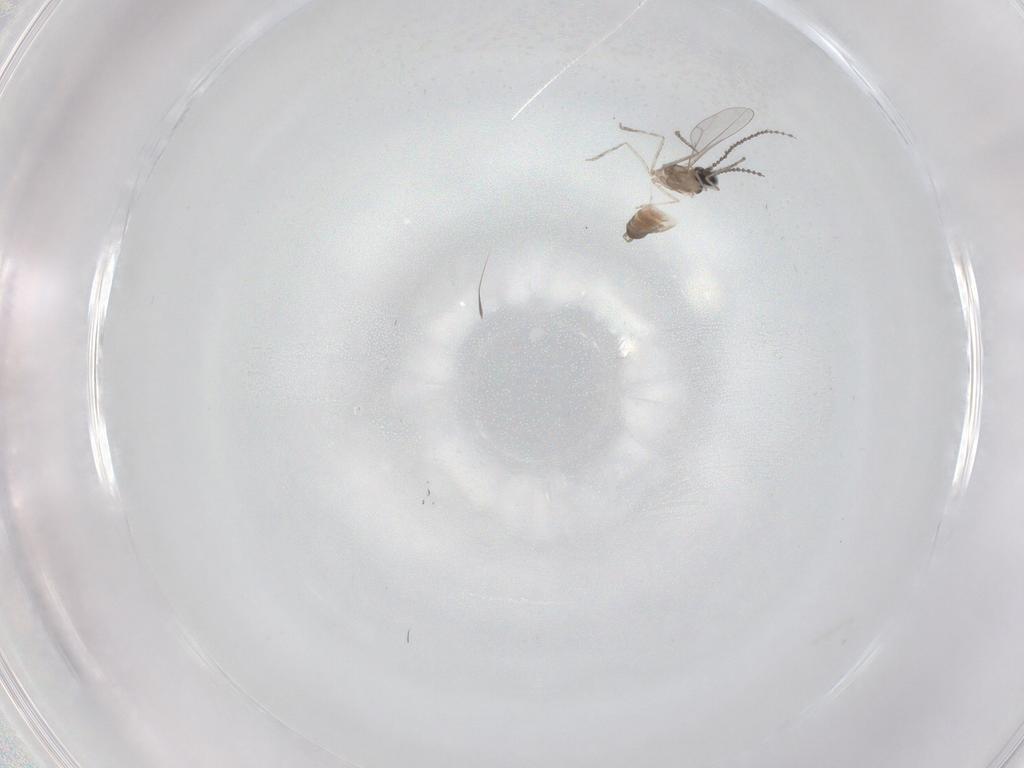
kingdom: Animalia
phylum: Arthropoda
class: Insecta
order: Diptera
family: Cecidomyiidae
